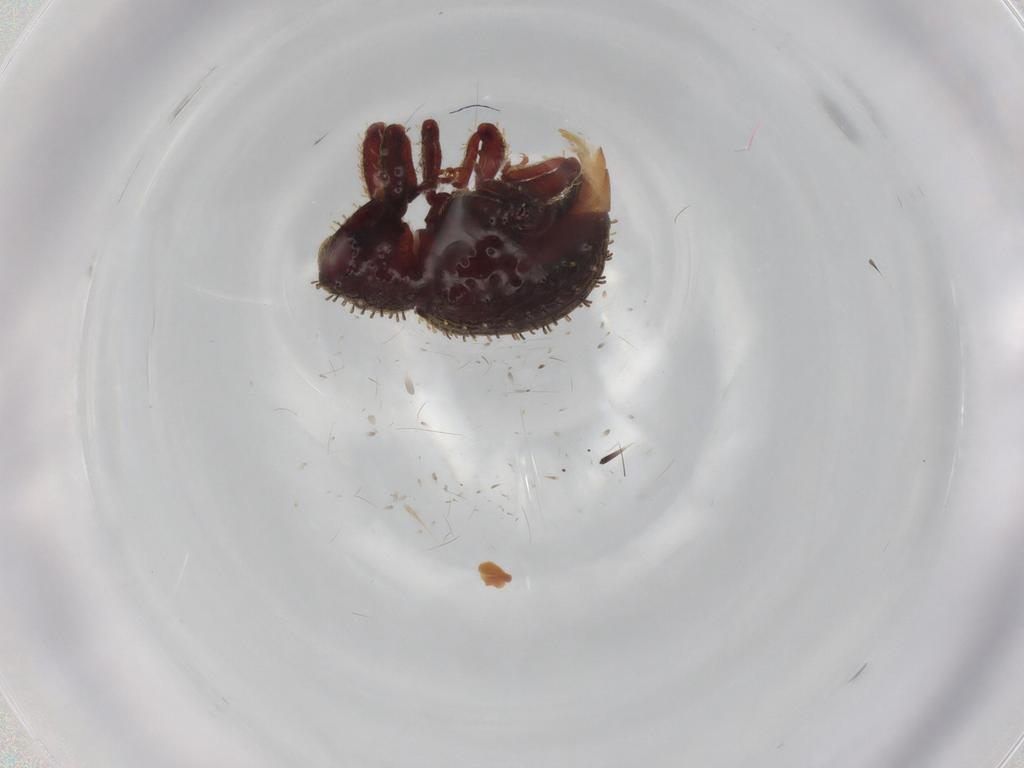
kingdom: Animalia
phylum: Arthropoda
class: Insecta
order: Coleoptera
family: Curculionidae
